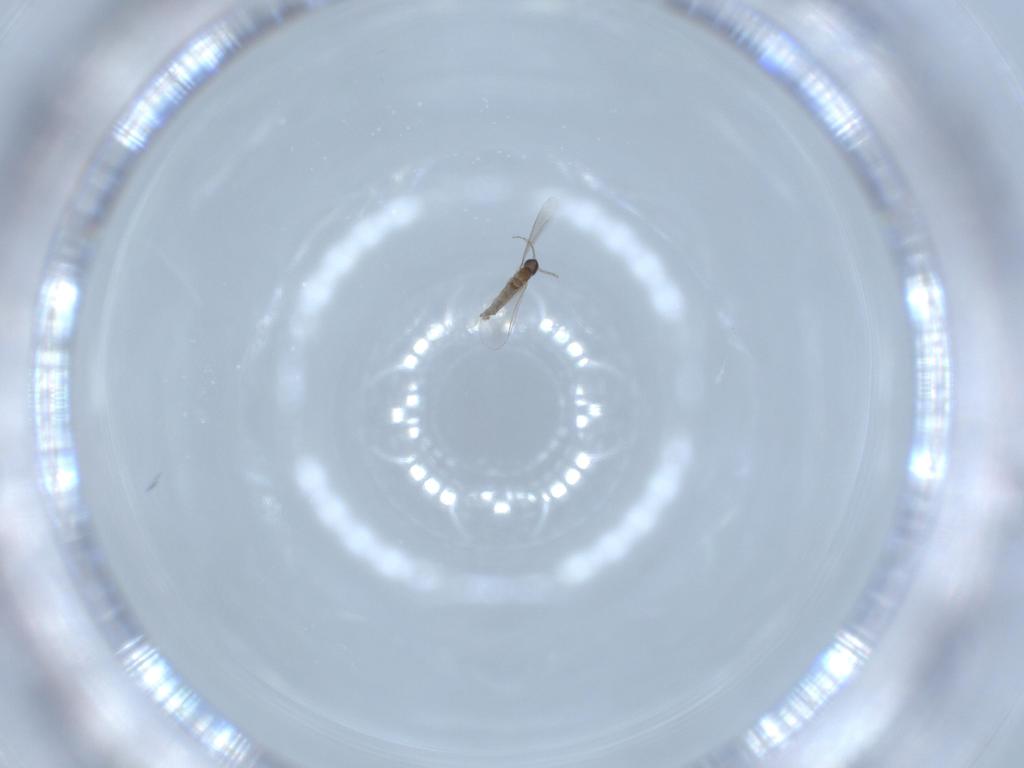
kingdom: Animalia
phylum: Arthropoda
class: Insecta
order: Diptera
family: Cecidomyiidae
